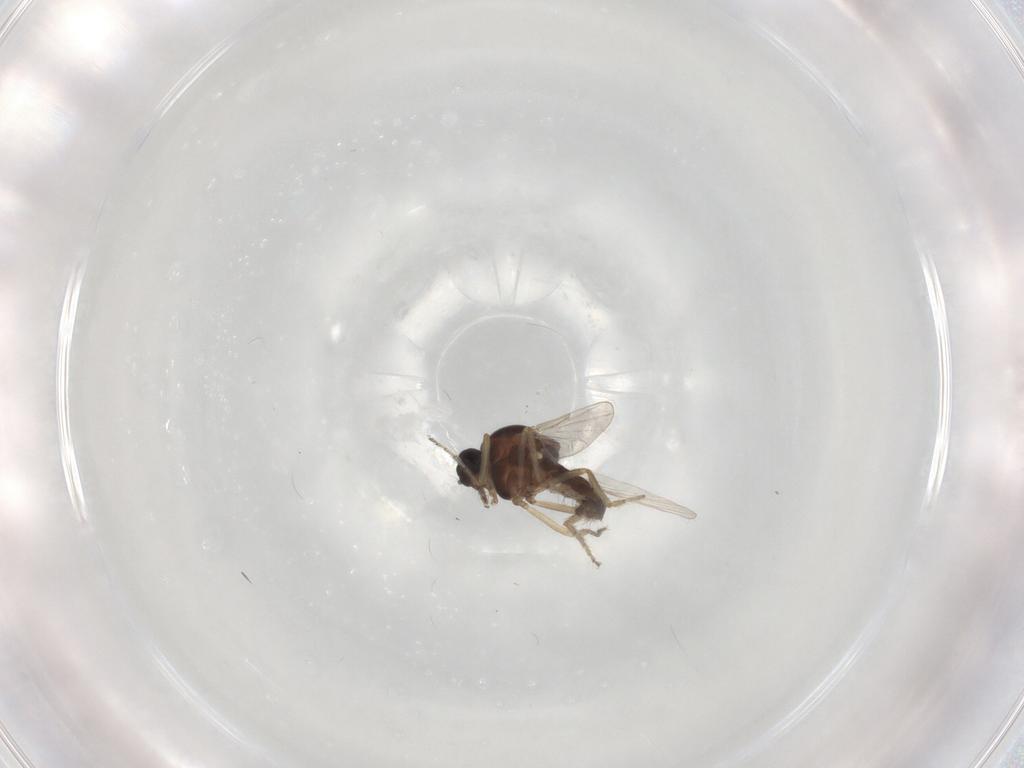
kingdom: Animalia
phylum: Arthropoda
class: Insecta
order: Diptera
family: Ceratopogonidae
